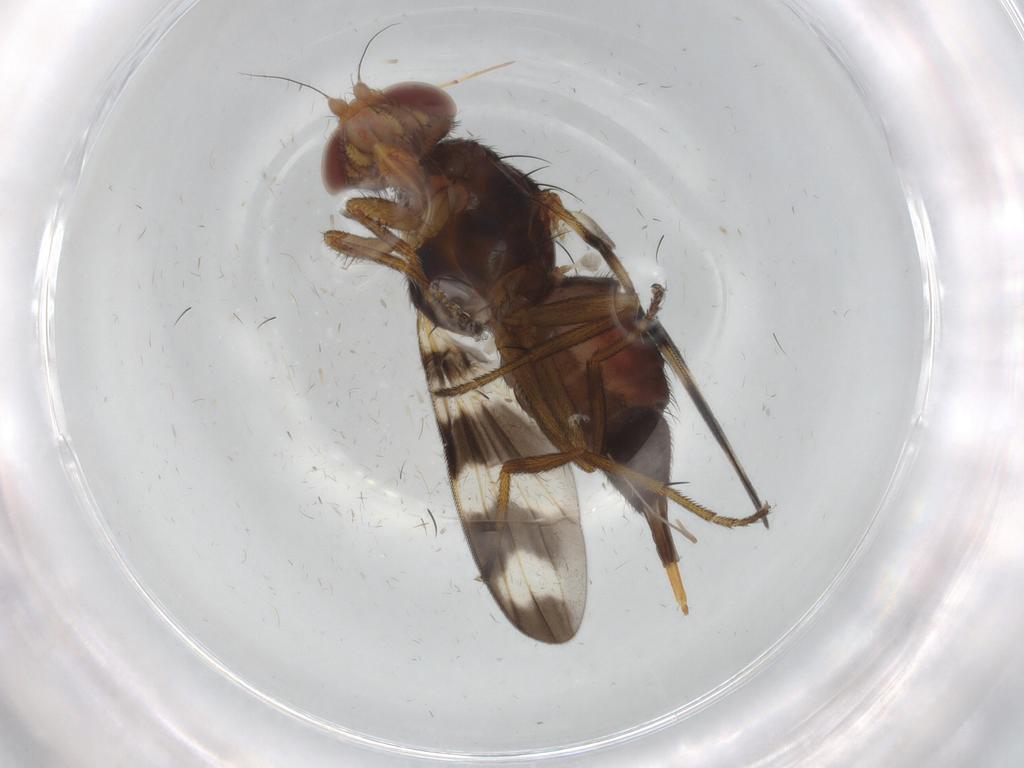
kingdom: Animalia
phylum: Arthropoda
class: Insecta
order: Diptera
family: Ceratopogonidae
